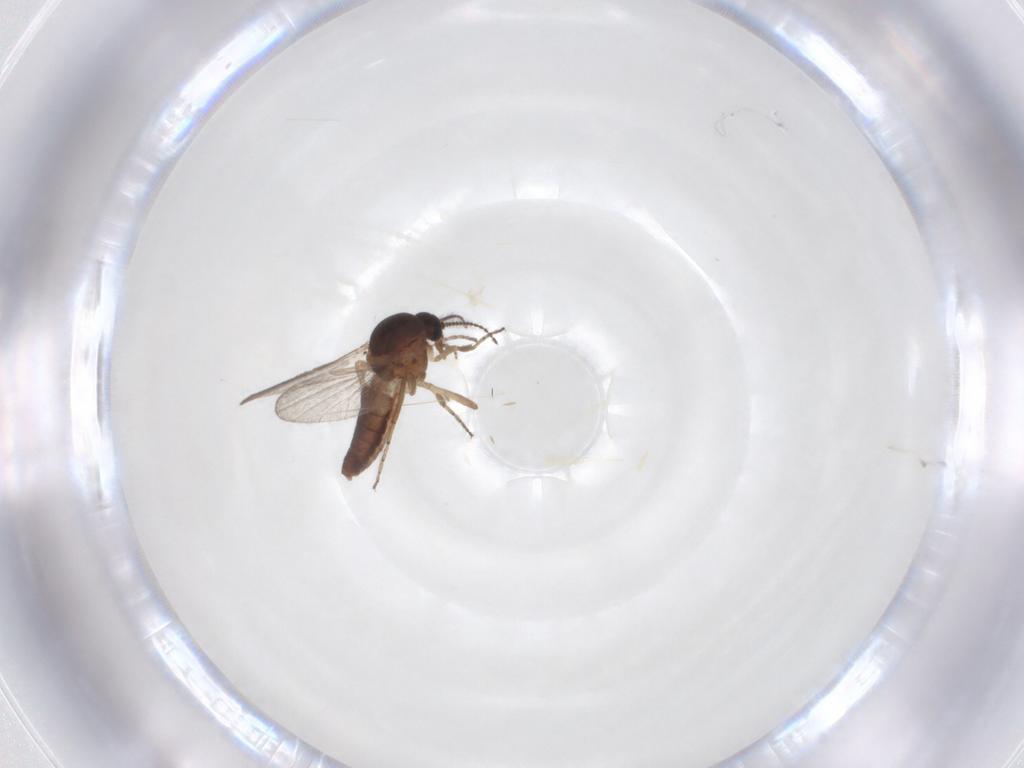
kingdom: Animalia
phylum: Arthropoda
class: Insecta
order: Diptera
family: Ceratopogonidae
